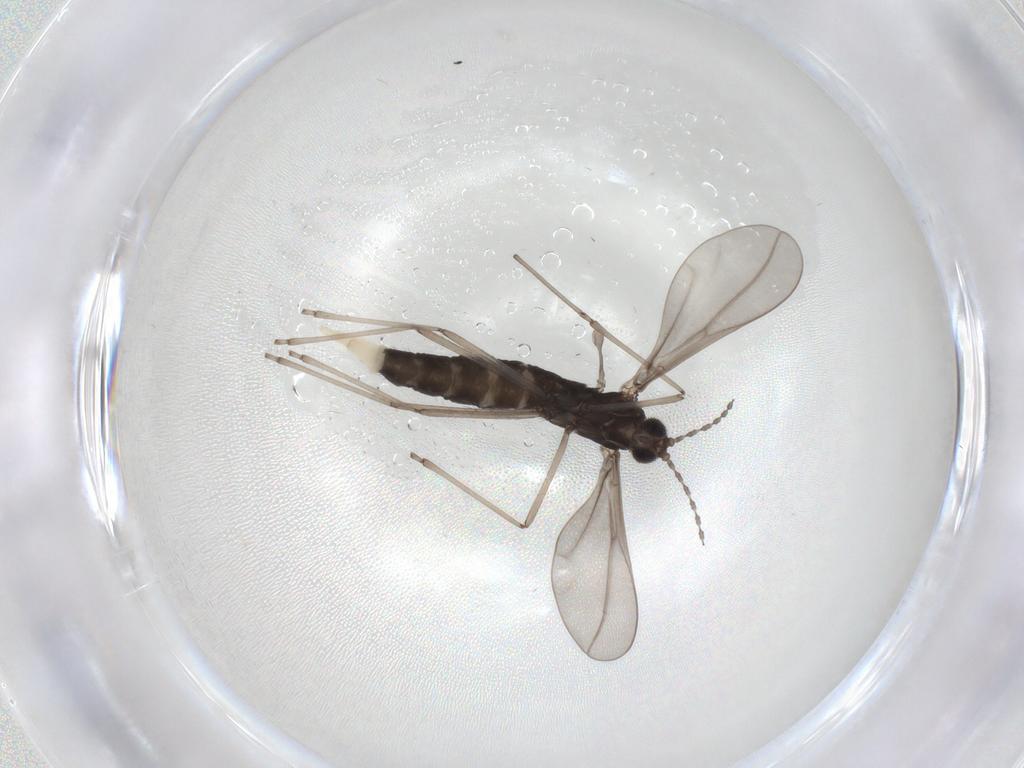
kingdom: Animalia
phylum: Arthropoda
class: Insecta
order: Diptera
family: Cecidomyiidae
